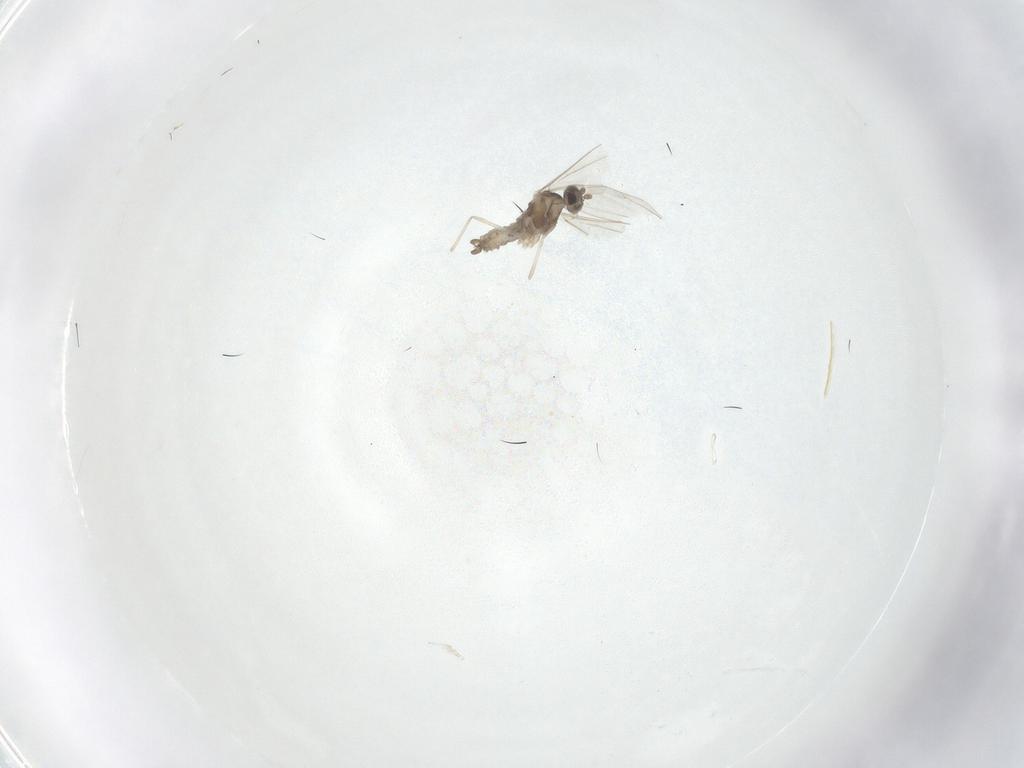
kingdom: Animalia
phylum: Arthropoda
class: Insecta
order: Diptera
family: Cecidomyiidae
